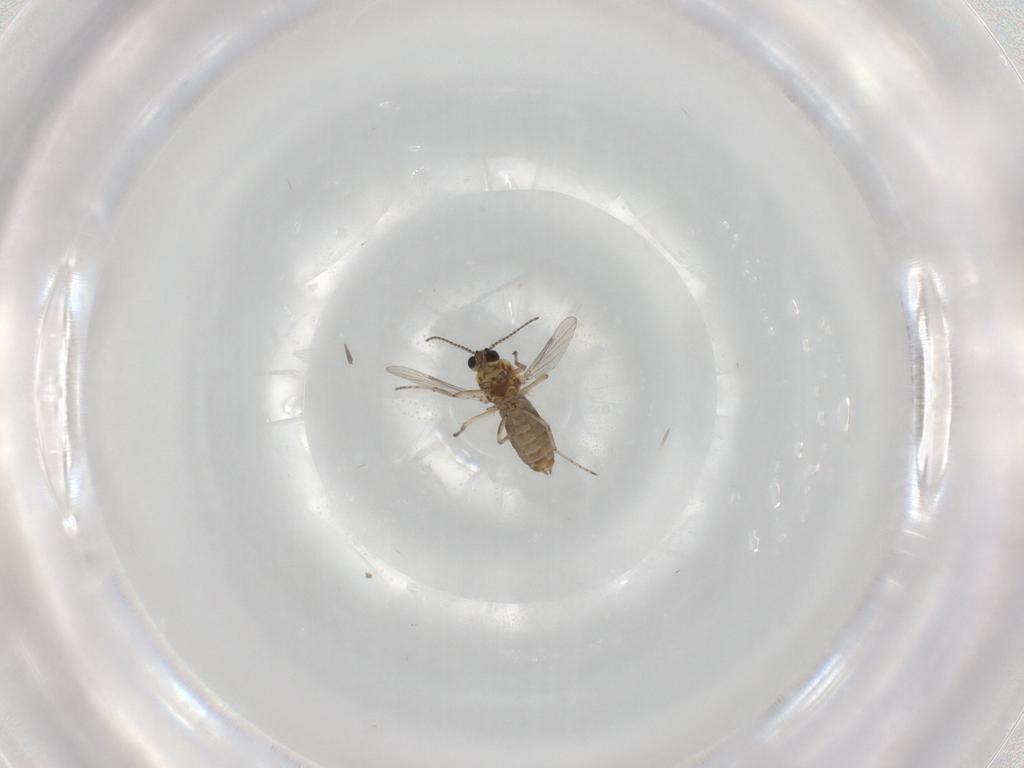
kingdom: Animalia
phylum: Arthropoda
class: Insecta
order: Diptera
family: Ceratopogonidae
